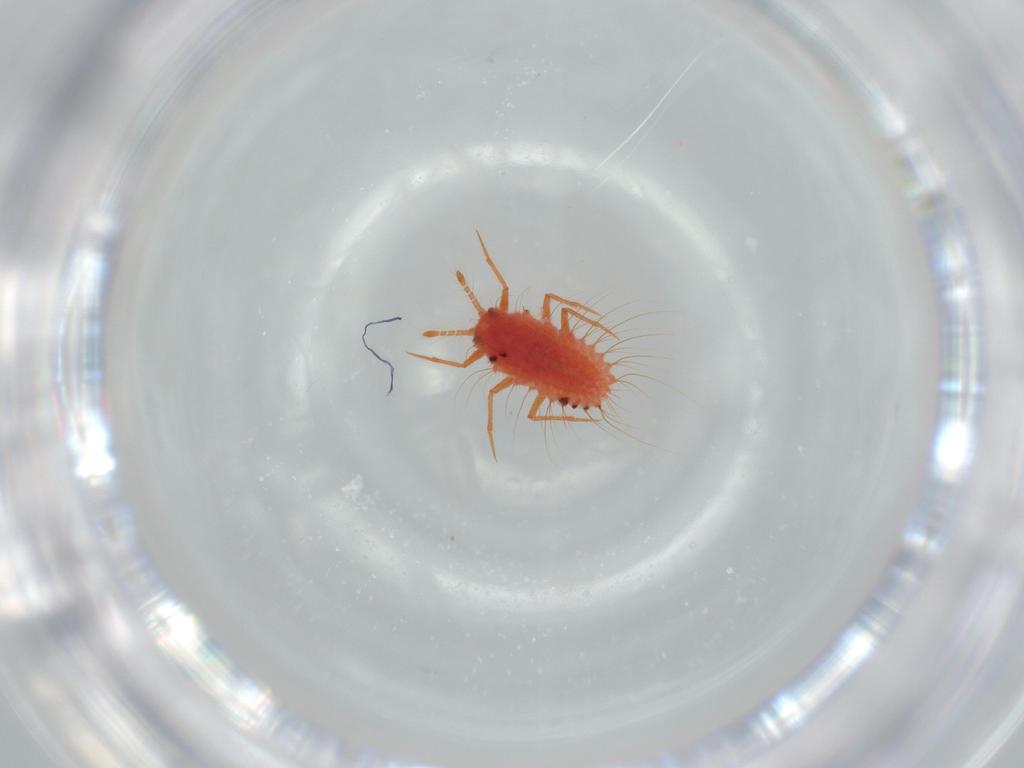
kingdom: Animalia
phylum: Arthropoda
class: Insecta
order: Hemiptera
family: Monophlebidae
